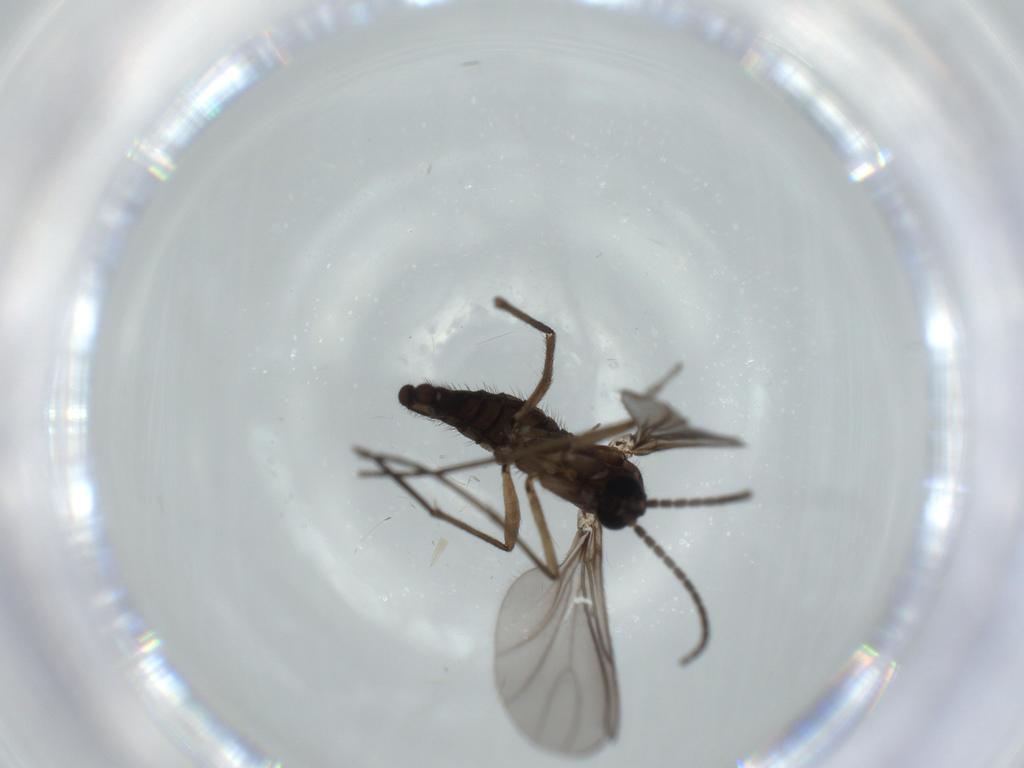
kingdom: Animalia
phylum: Arthropoda
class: Insecta
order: Diptera
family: Sciaridae
